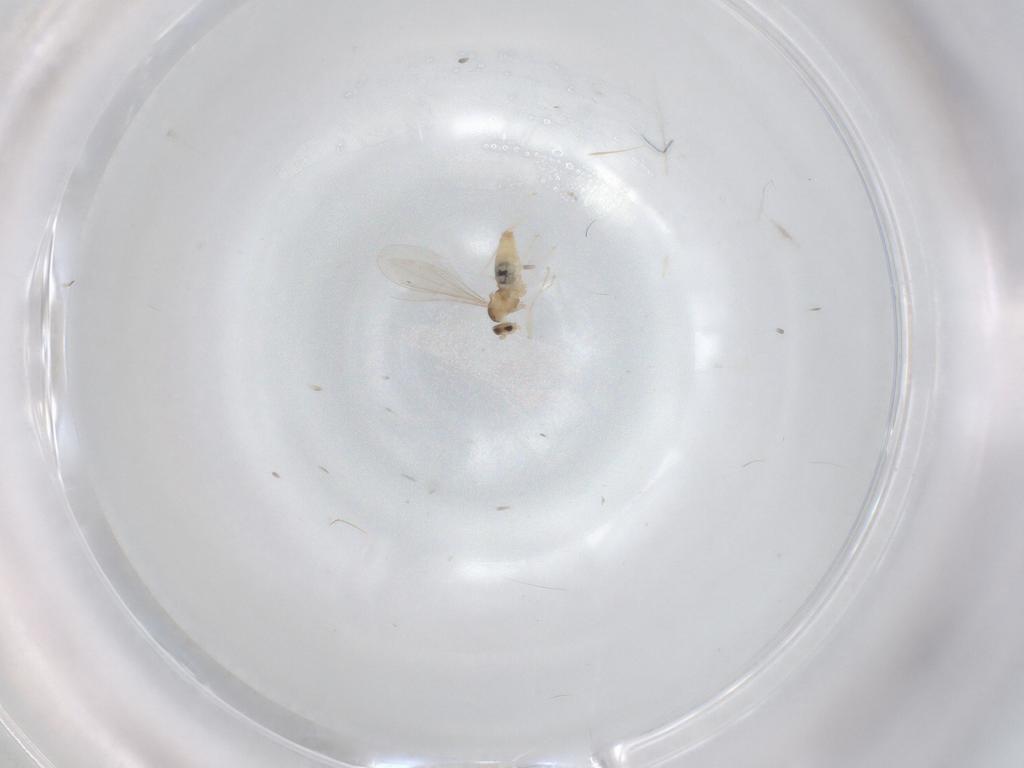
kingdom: Animalia
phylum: Arthropoda
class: Insecta
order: Diptera
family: Cecidomyiidae
